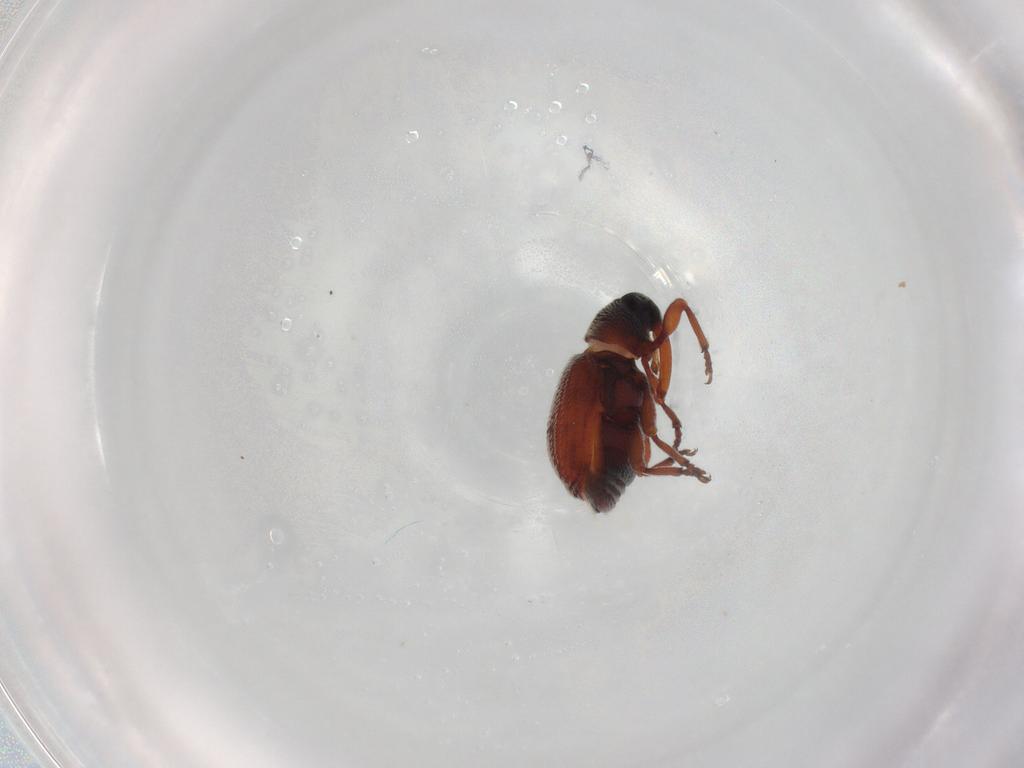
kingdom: Animalia
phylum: Arthropoda
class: Insecta
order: Coleoptera
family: Curculionidae
